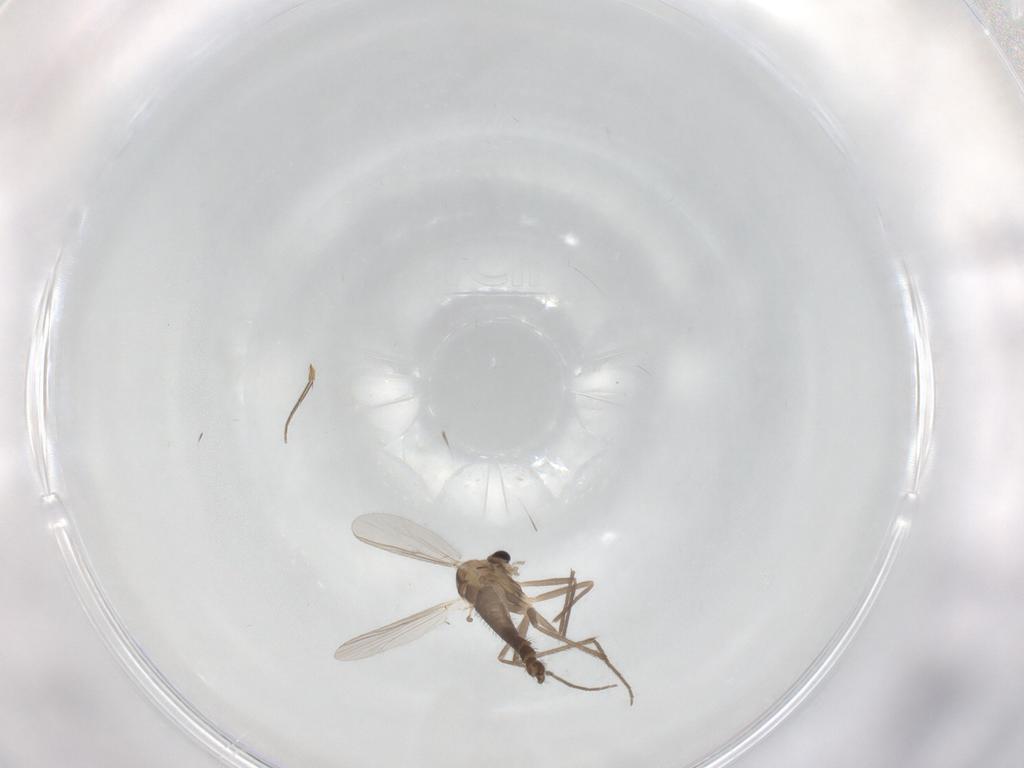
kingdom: Animalia
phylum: Arthropoda
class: Insecta
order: Diptera
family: Chironomidae
